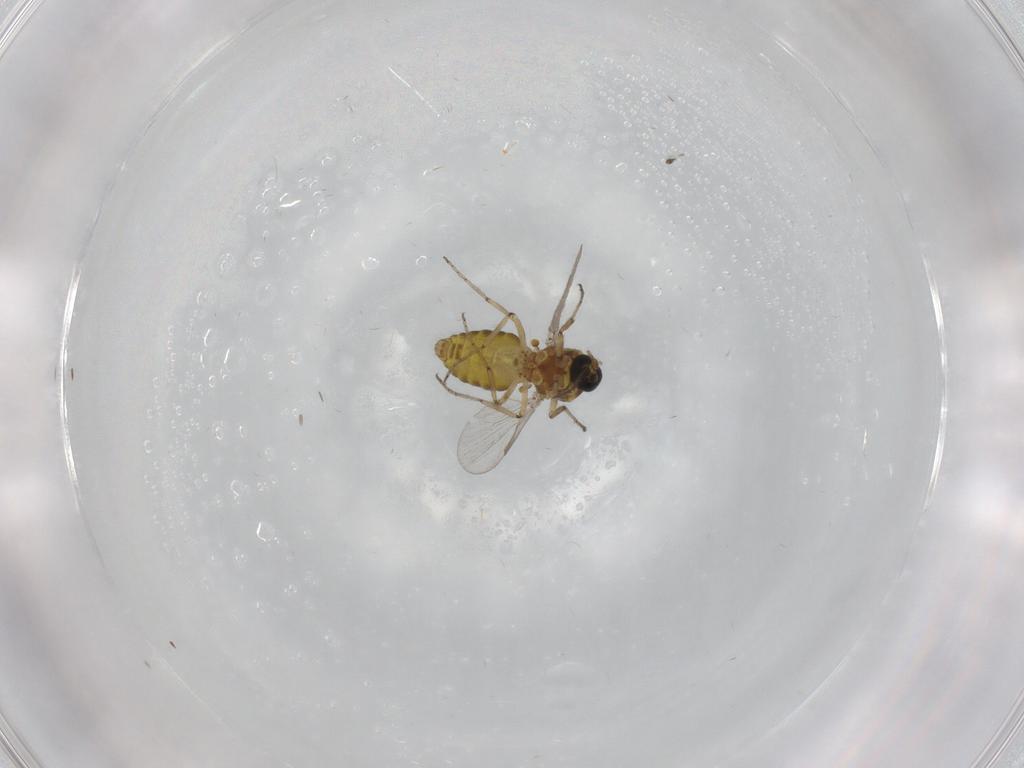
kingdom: Animalia
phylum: Arthropoda
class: Insecta
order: Diptera
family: Ceratopogonidae
